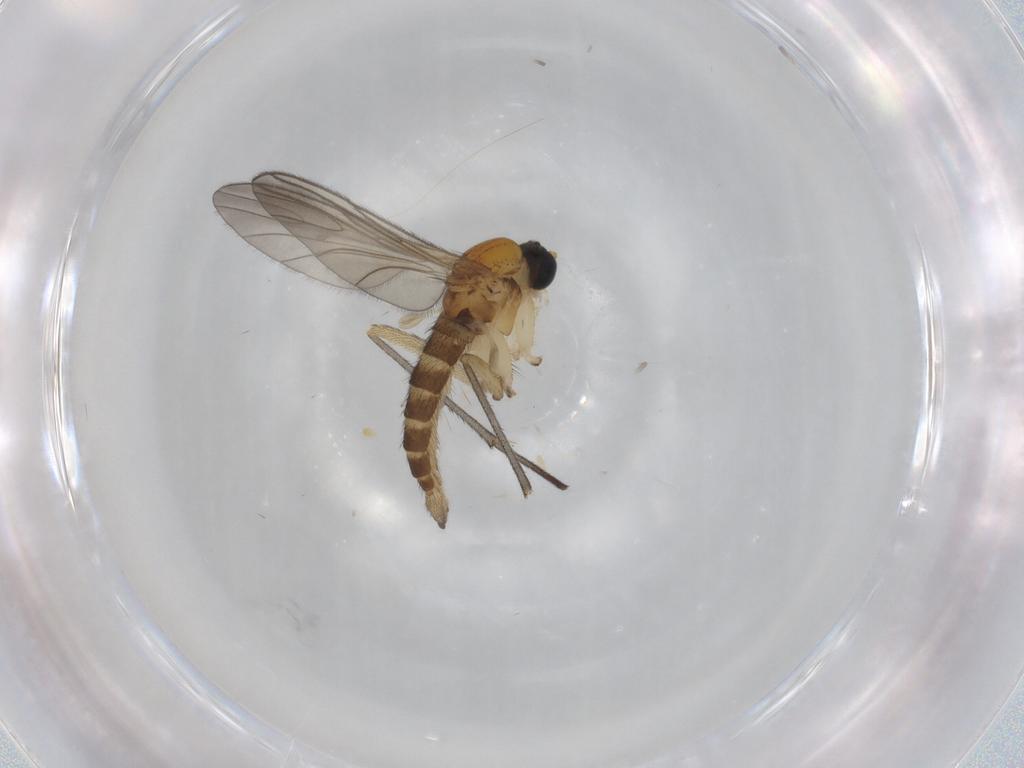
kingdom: Animalia
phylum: Arthropoda
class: Insecta
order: Diptera
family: Sciaridae
